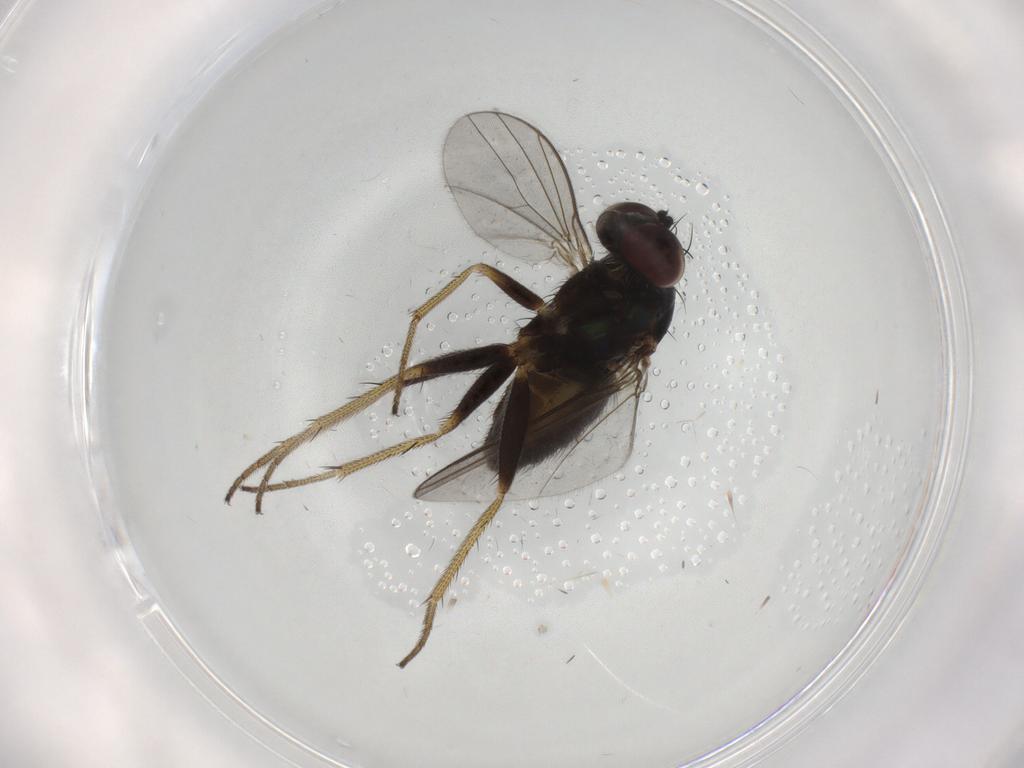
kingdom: Animalia
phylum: Arthropoda
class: Insecta
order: Diptera
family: Dolichopodidae
